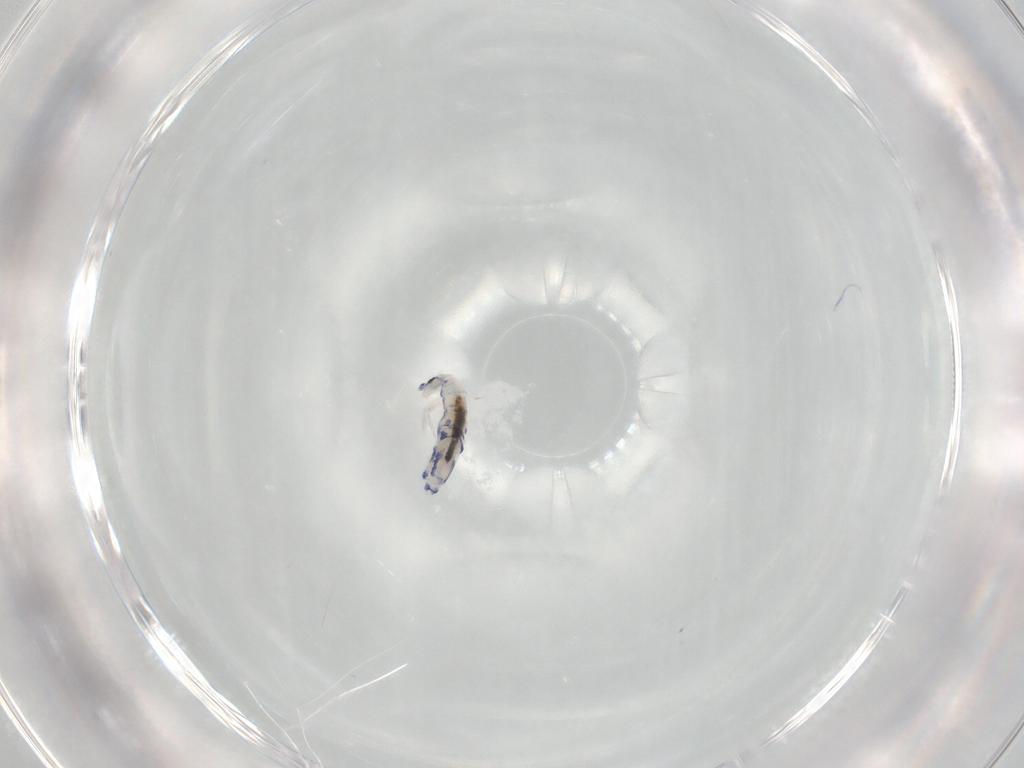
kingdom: Animalia
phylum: Arthropoda
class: Collembola
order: Entomobryomorpha
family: Entomobryidae
